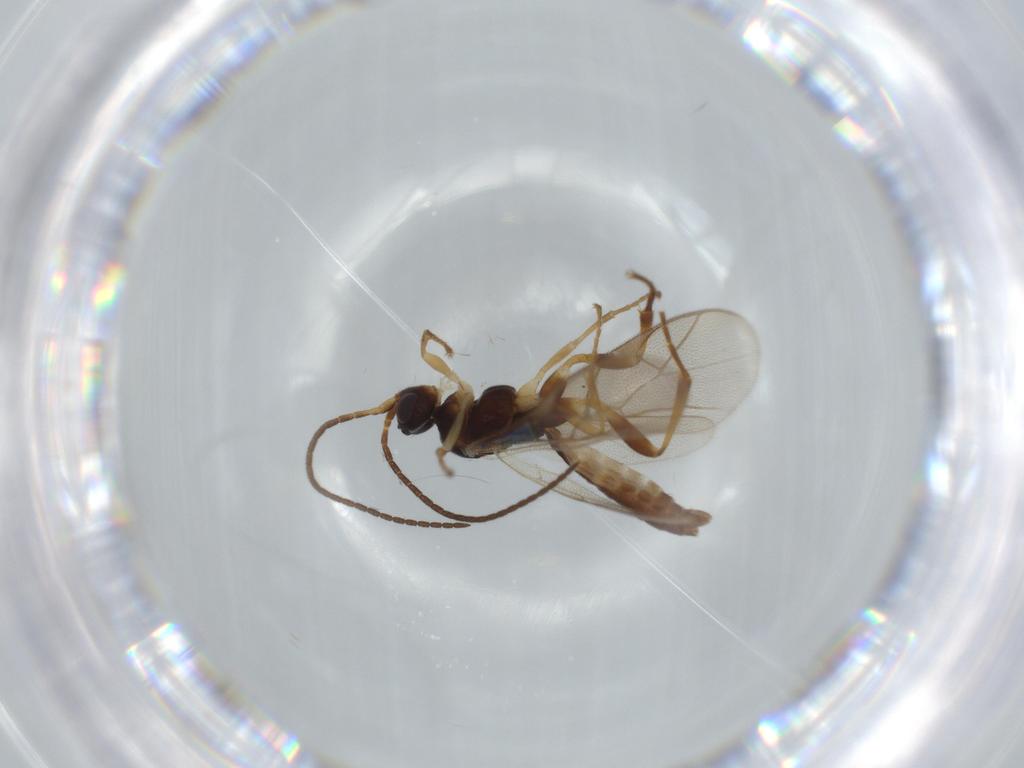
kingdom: Animalia
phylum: Arthropoda
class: Insecta
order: Hymenoptera
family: Ichneumonidae
